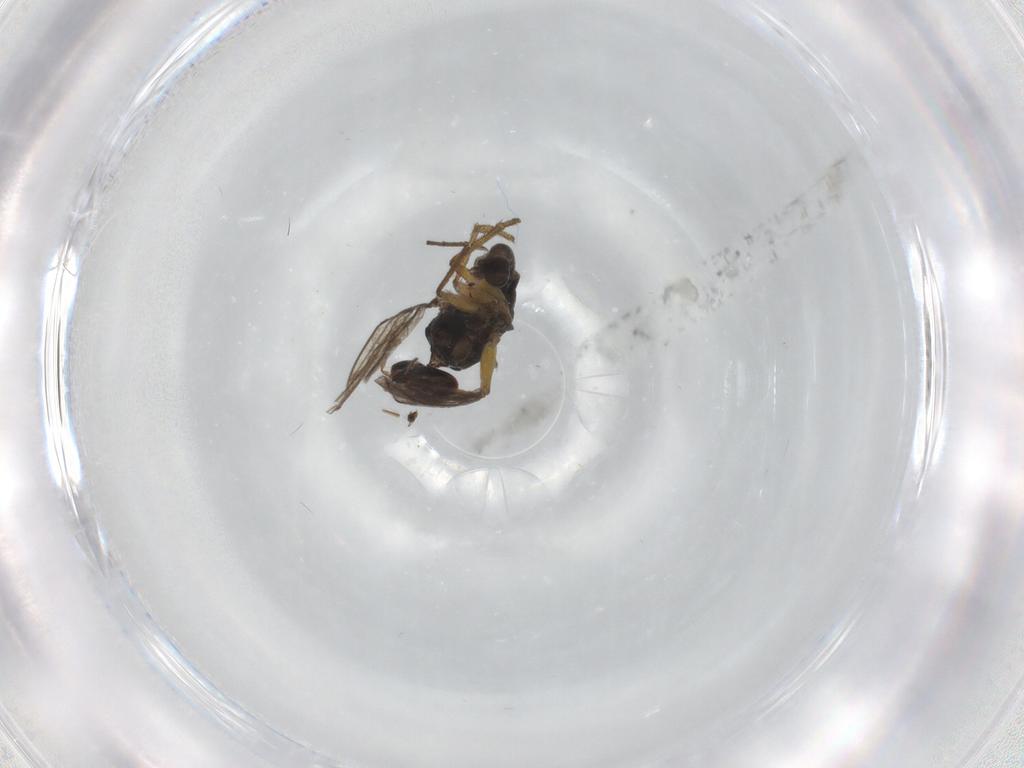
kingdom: Animalia
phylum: Arthropoda
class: Insecta
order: Diptera
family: Dolichopodidae
